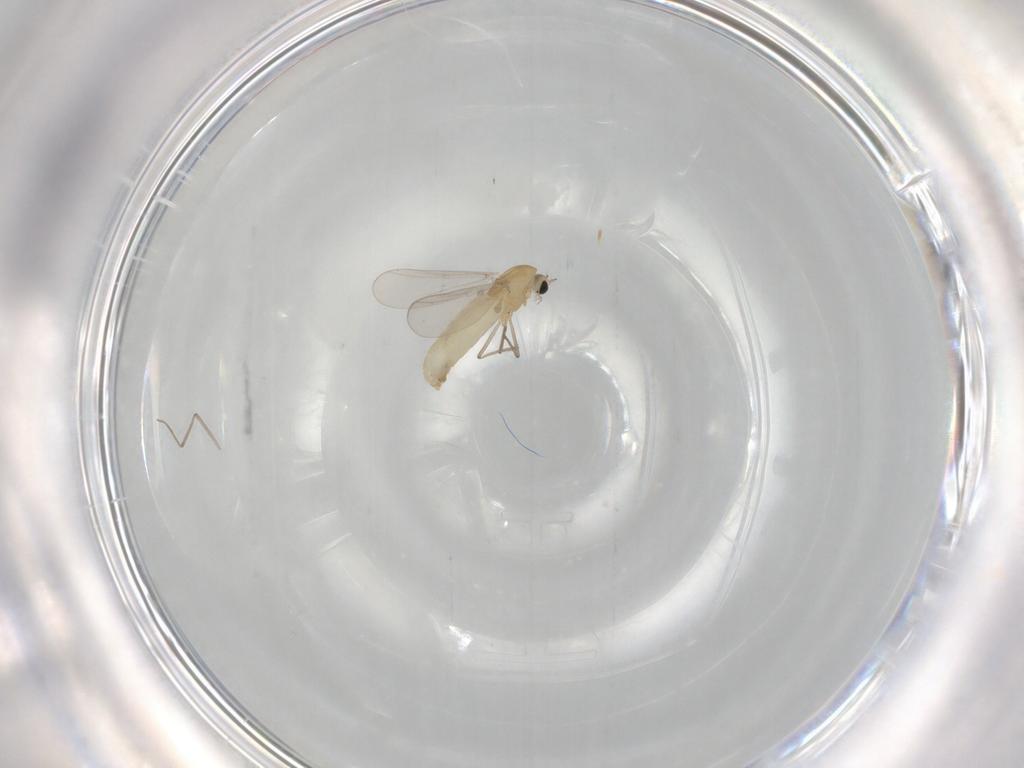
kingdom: Animalia
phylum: Arthropoda
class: Insecta
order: Diptera
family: Chironomidae
